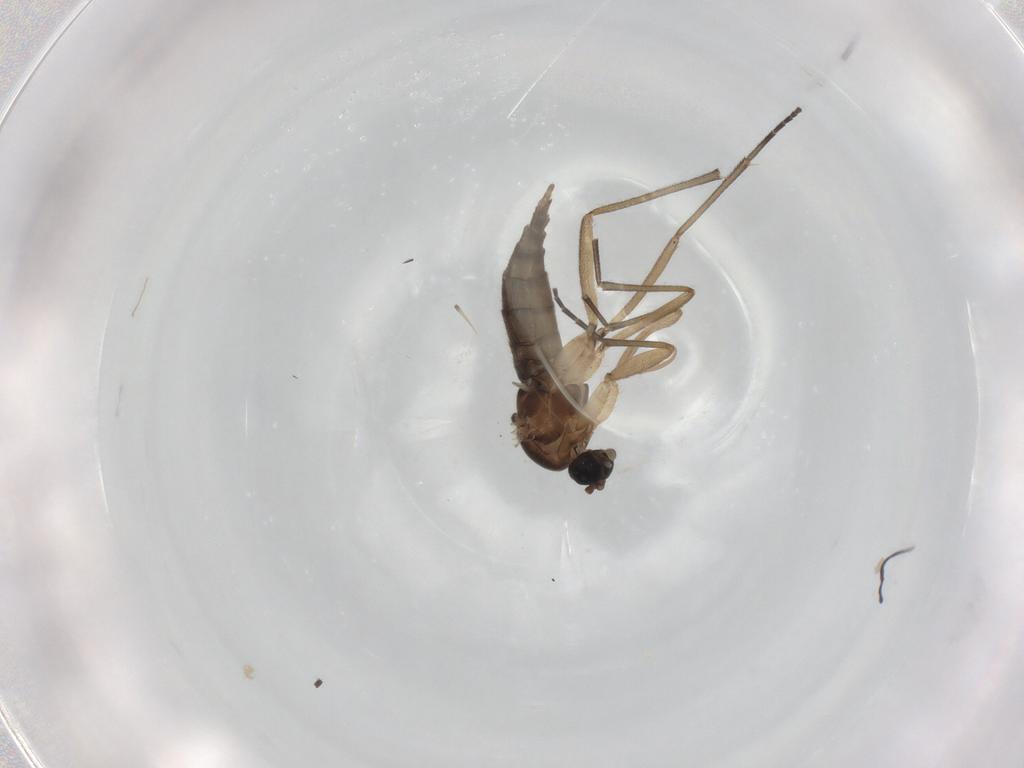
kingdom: Animalia
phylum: Arthropoda
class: Insecta
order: Diptera
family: Sciaridae
